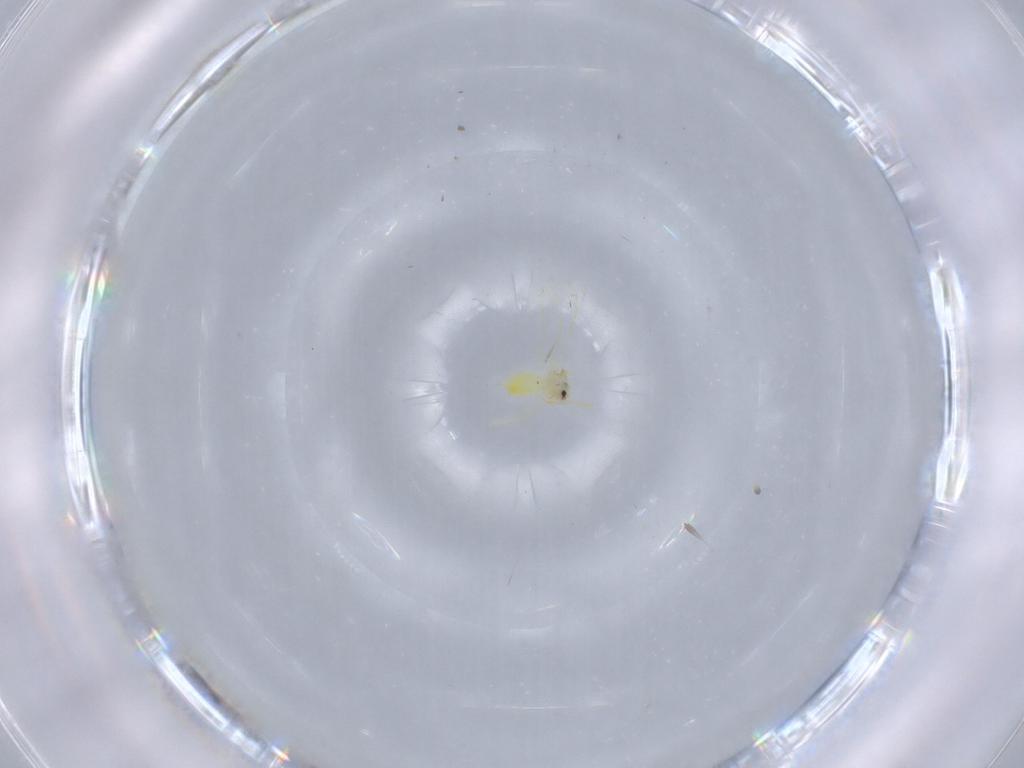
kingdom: Animalia
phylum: Arthropoda
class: Insecta
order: Hemiptera
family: Aleyrodidae
